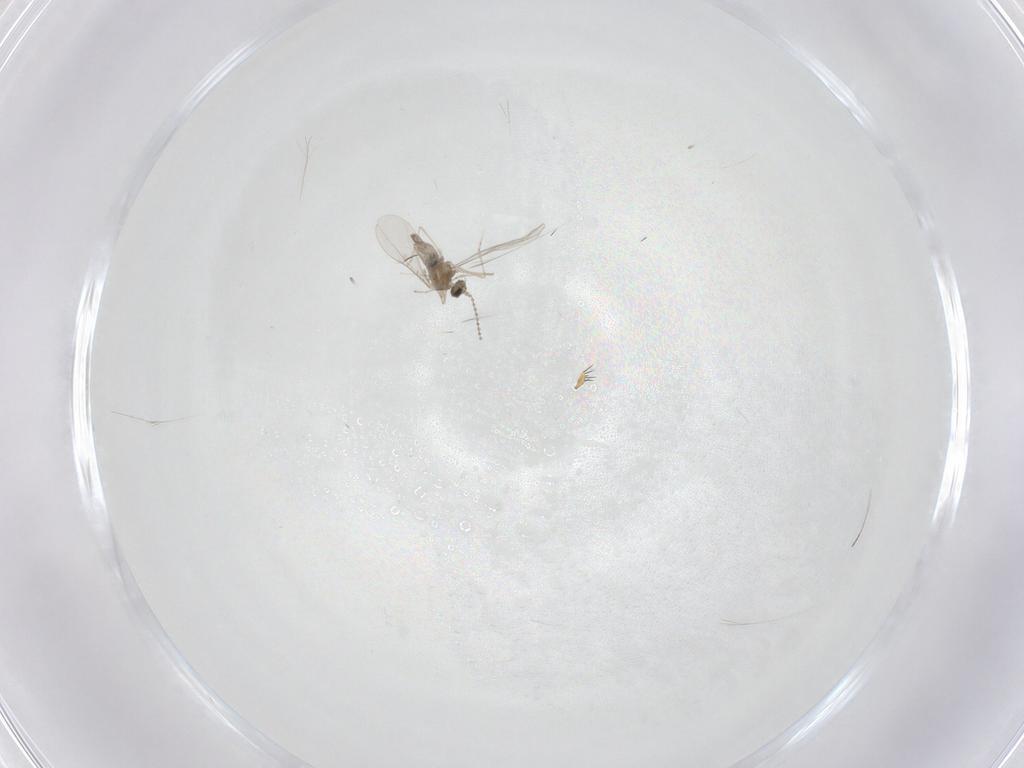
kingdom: Animalia
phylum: Arthropoda
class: Insecta
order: Diptera
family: Cecidomyiidae
